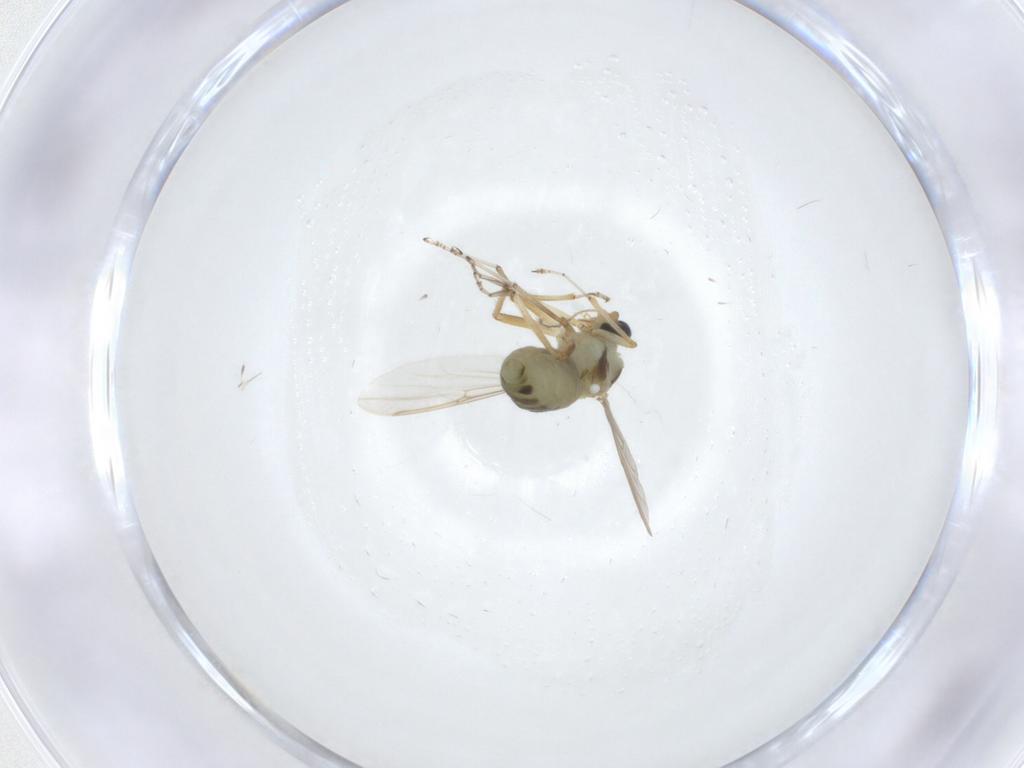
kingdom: Animalia
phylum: Arthropoda
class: Insecta
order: Diptera
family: Ceratopogonidae
